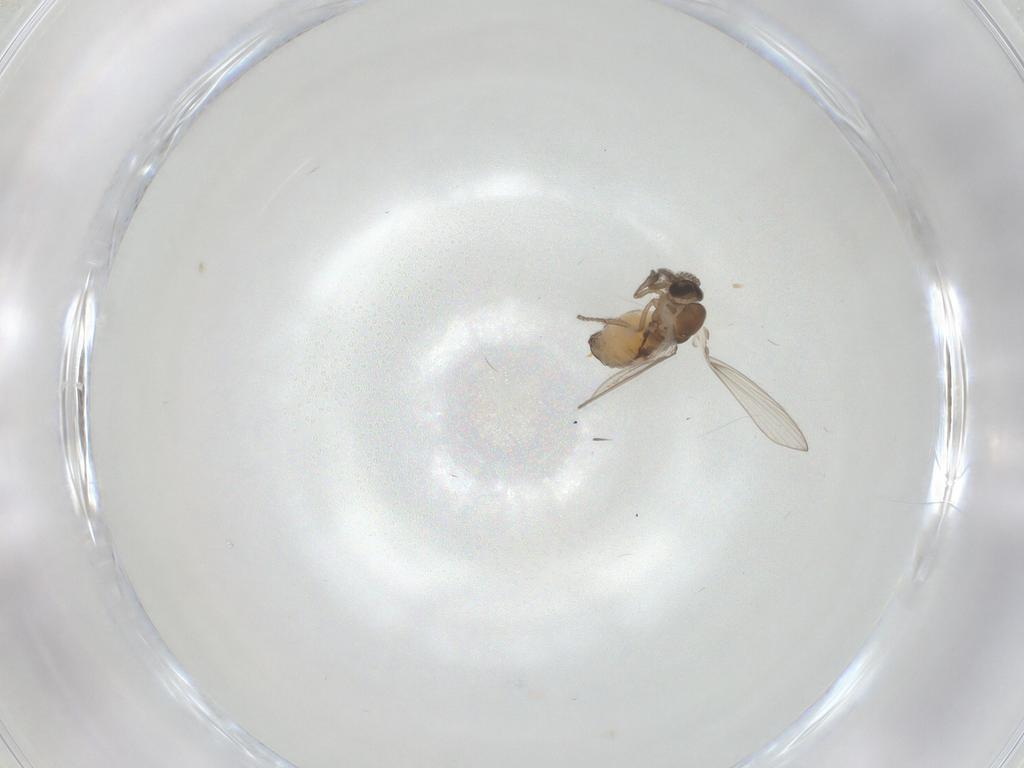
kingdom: Animalia
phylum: Arthropoda
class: Insecta
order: Diptera
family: Psychodidae
